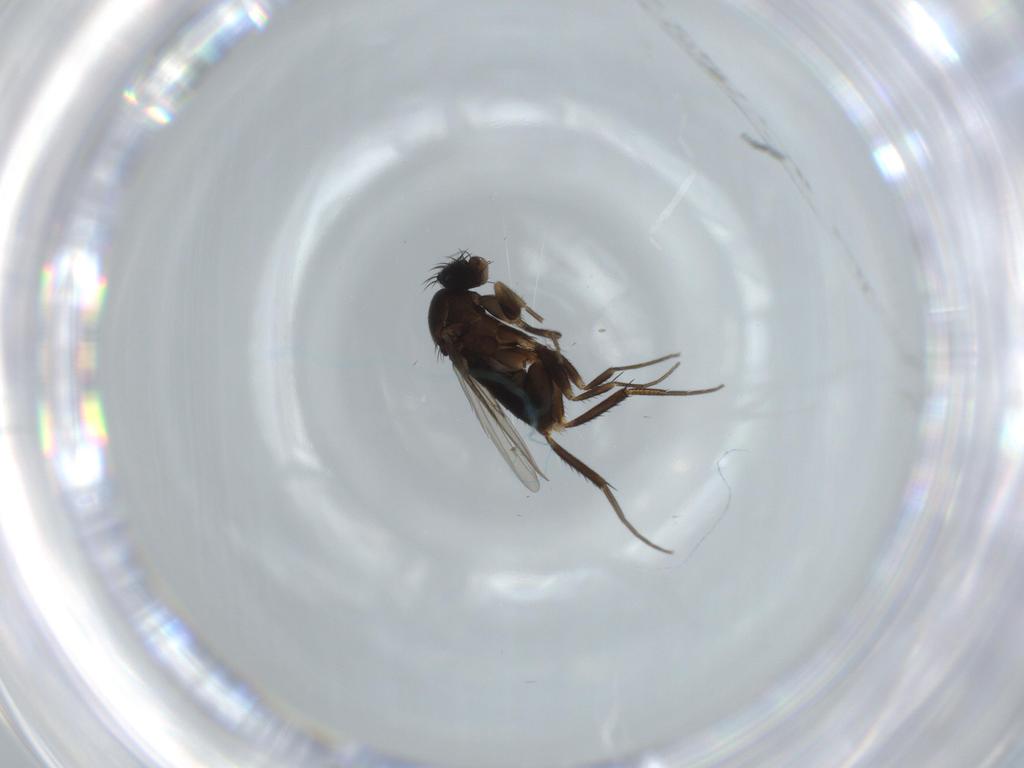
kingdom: Animalia
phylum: Arthropoda
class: Insecta
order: Diptera
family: Phoridae
